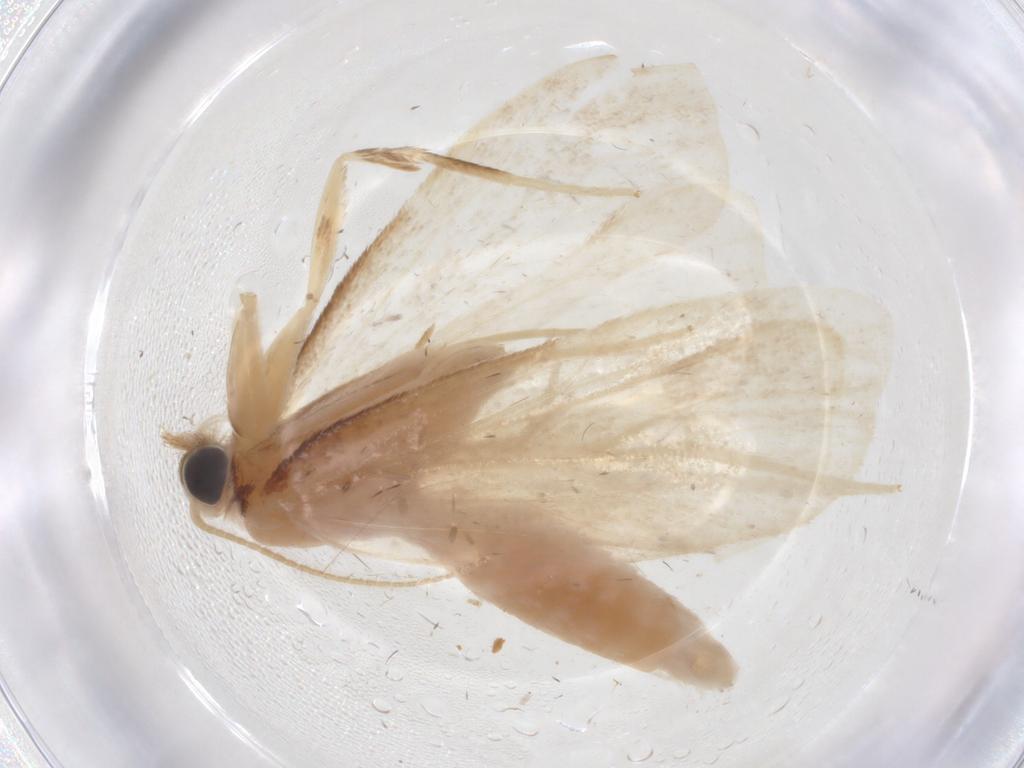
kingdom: Animalia
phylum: Arthropoda
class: Insecta
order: Lepidoptera
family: Crambidae
